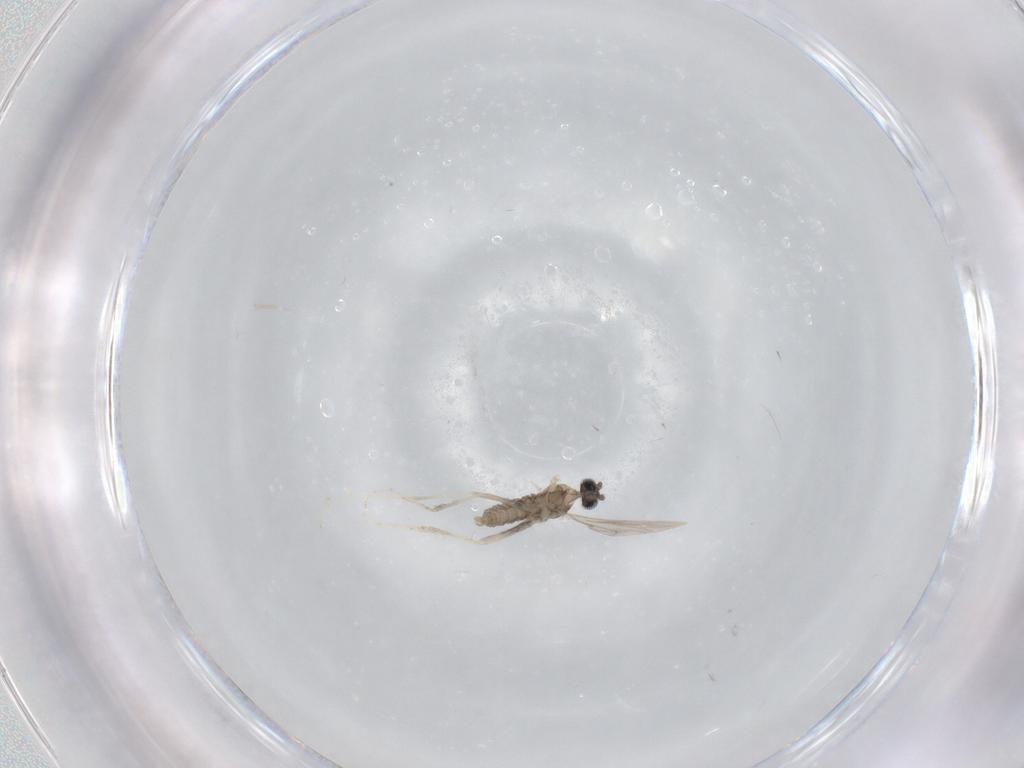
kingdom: Animalia
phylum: Arthropoda
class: Insecta
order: Diptera
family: Cecidomyiidae
